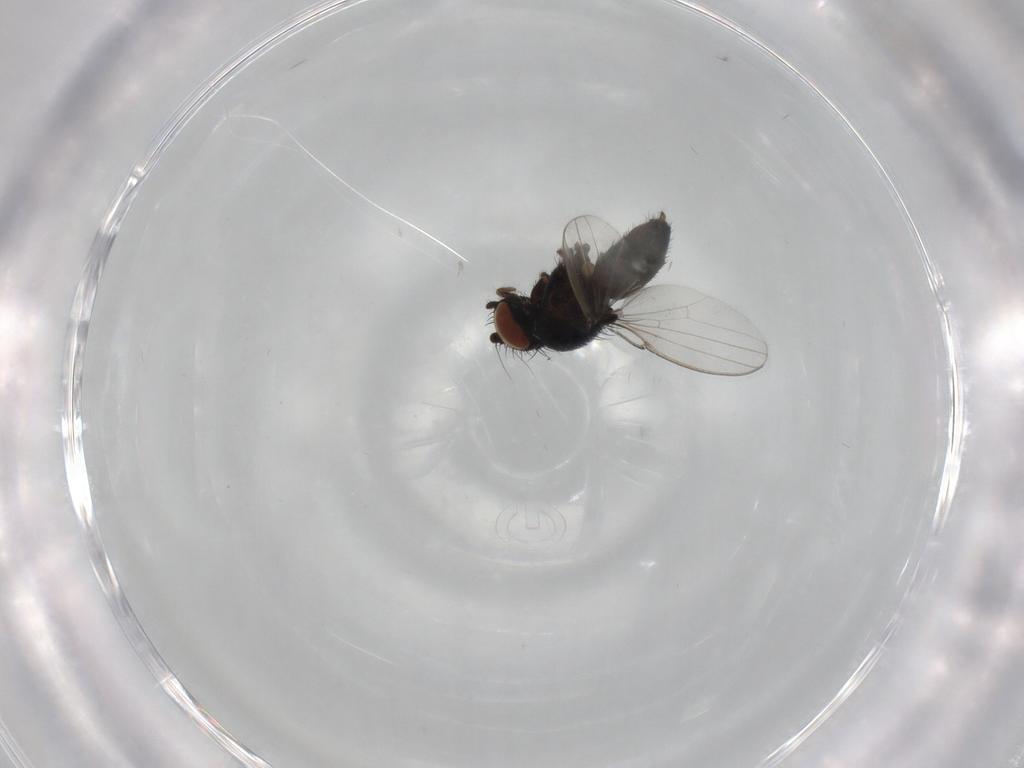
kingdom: Animalia
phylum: Arthropoda
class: Insecta
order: Diptera
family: Milichiidae
